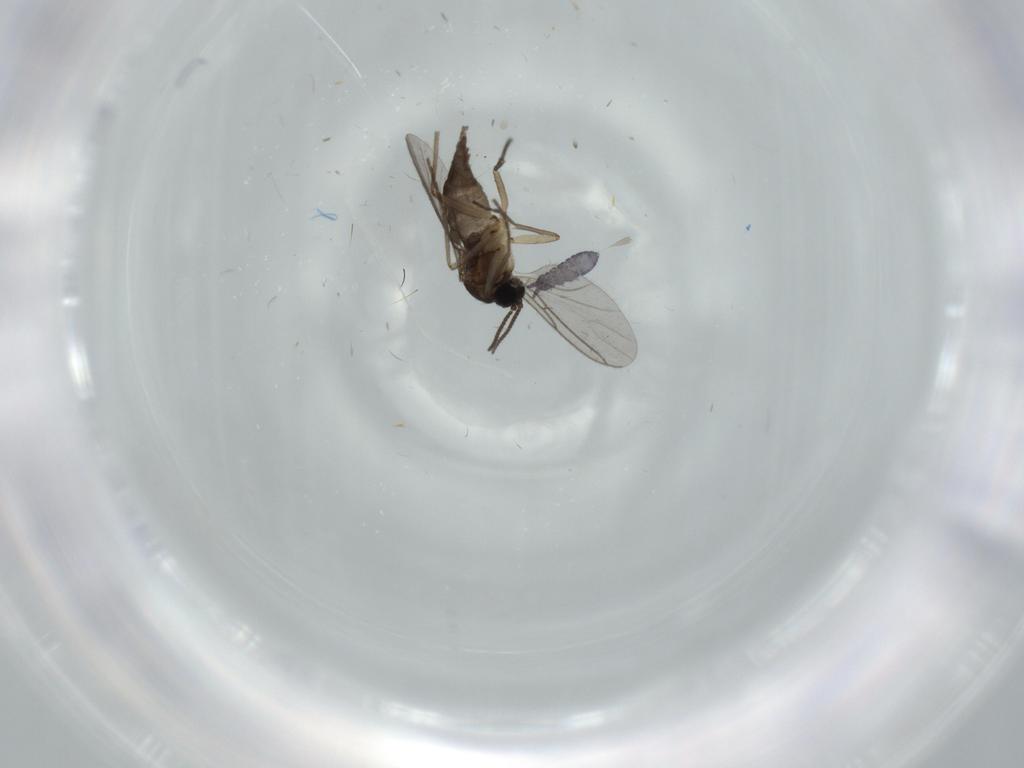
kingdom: Animalia
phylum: Arthropoda
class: Insecta
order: Diptera
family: Sciaridae
